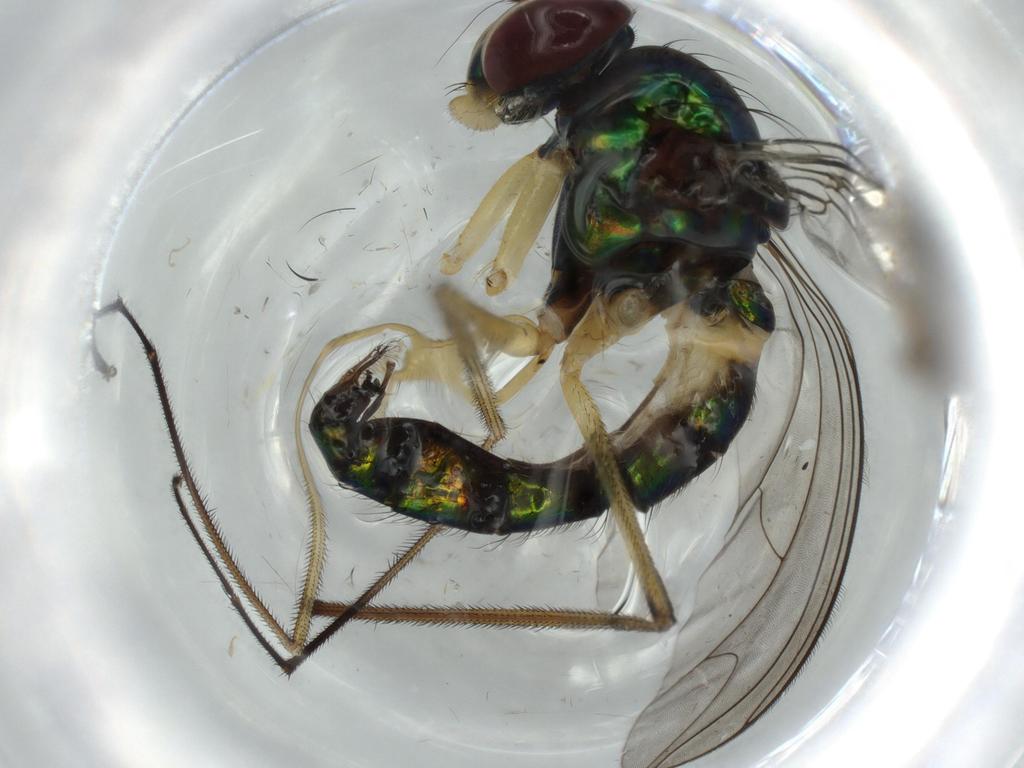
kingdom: Animalia
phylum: Arthropoda
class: Insecta
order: Diptera
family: Dolichopodidae
